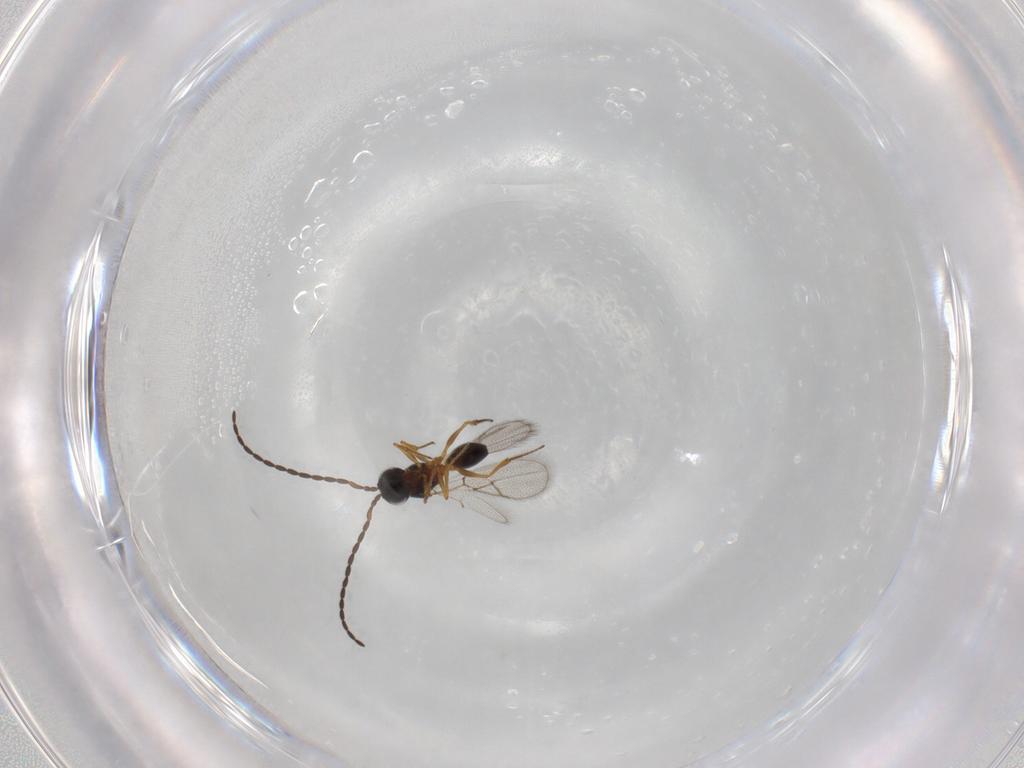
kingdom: Animalia
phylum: Arthropoda
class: Insecta
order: Hymenoptera
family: Figitidae
